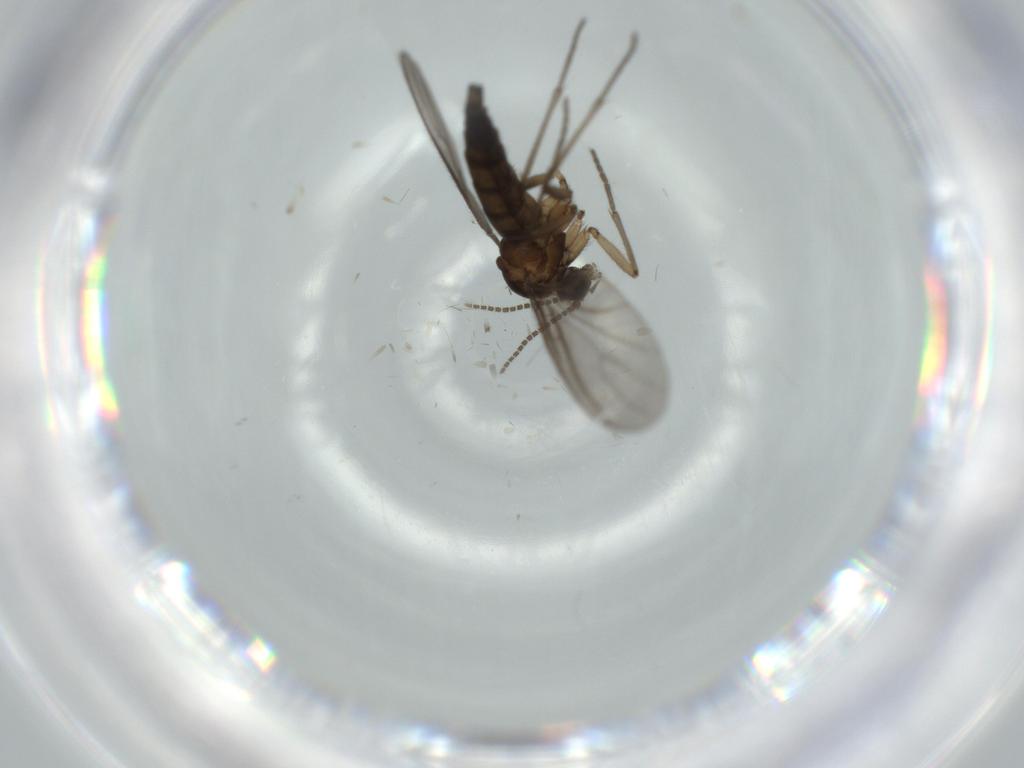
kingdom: Animalia
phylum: Arthropoda
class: Insecta
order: Diptera
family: Sciaridae
